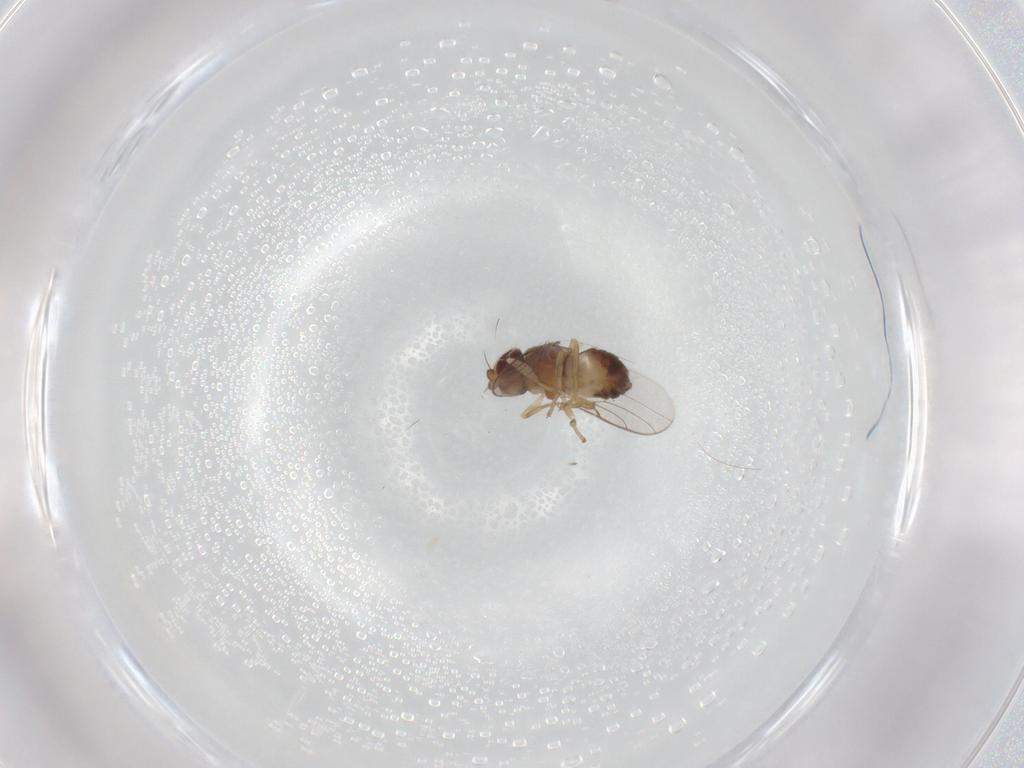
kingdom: Animalia
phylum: Arthropoda
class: Insecta
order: Diptera
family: Chloropidae
